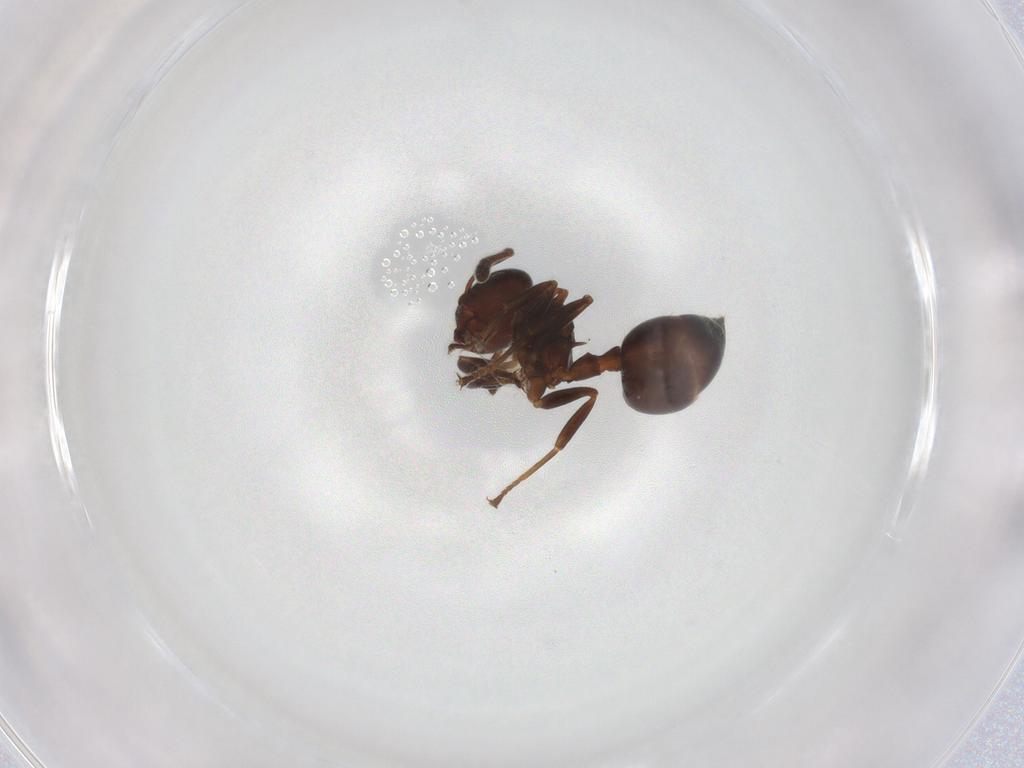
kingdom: Animalia
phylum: Arthropoda
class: Insecta
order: Hymenoptera
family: Formicidae
